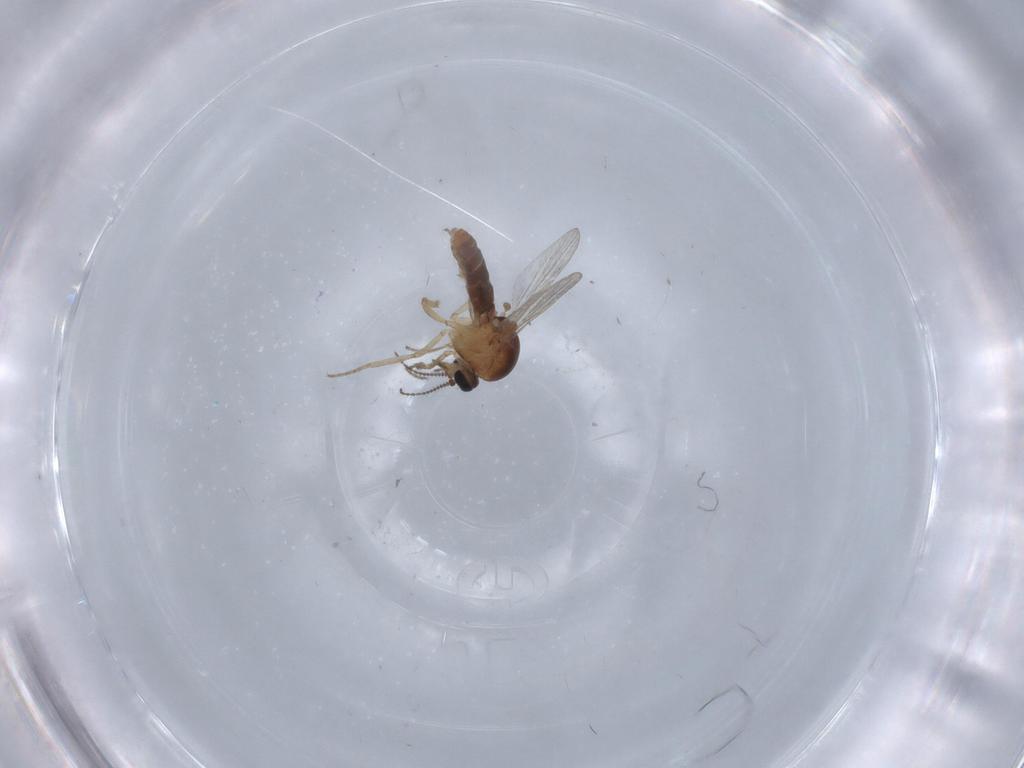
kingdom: Animalia
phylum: Arthropoda
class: Insecta
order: Diptera
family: Ceratopogonidae
